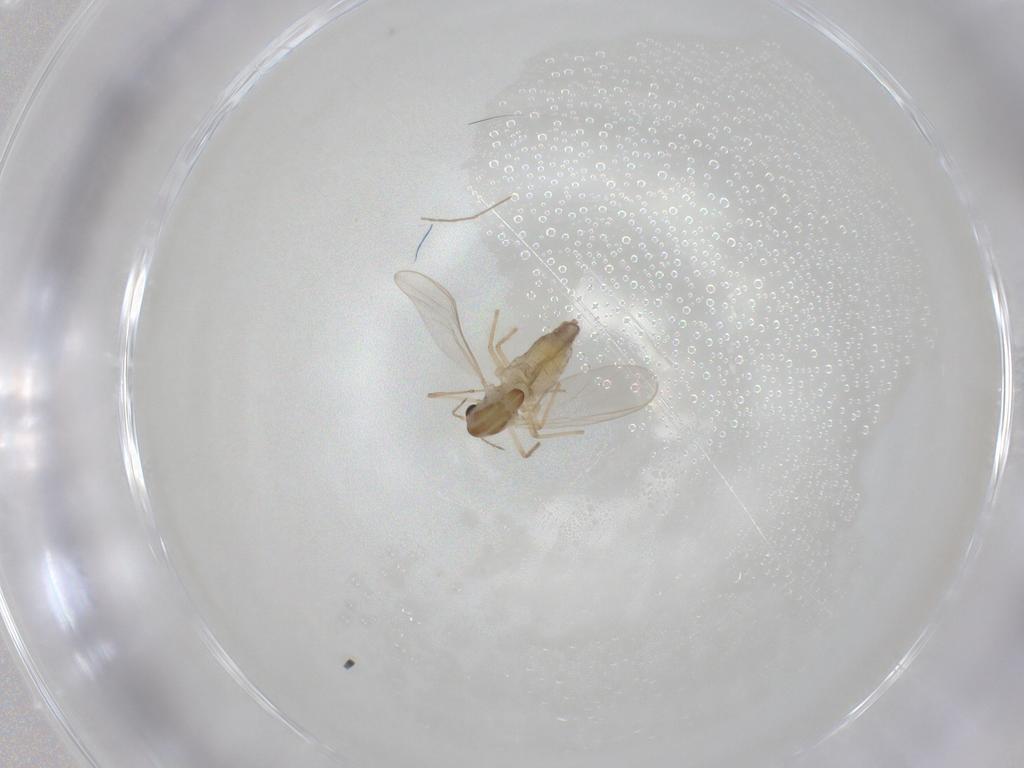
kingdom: Animalia
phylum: Arthropoda
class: Insecta
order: Diptera
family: Chironomidae
